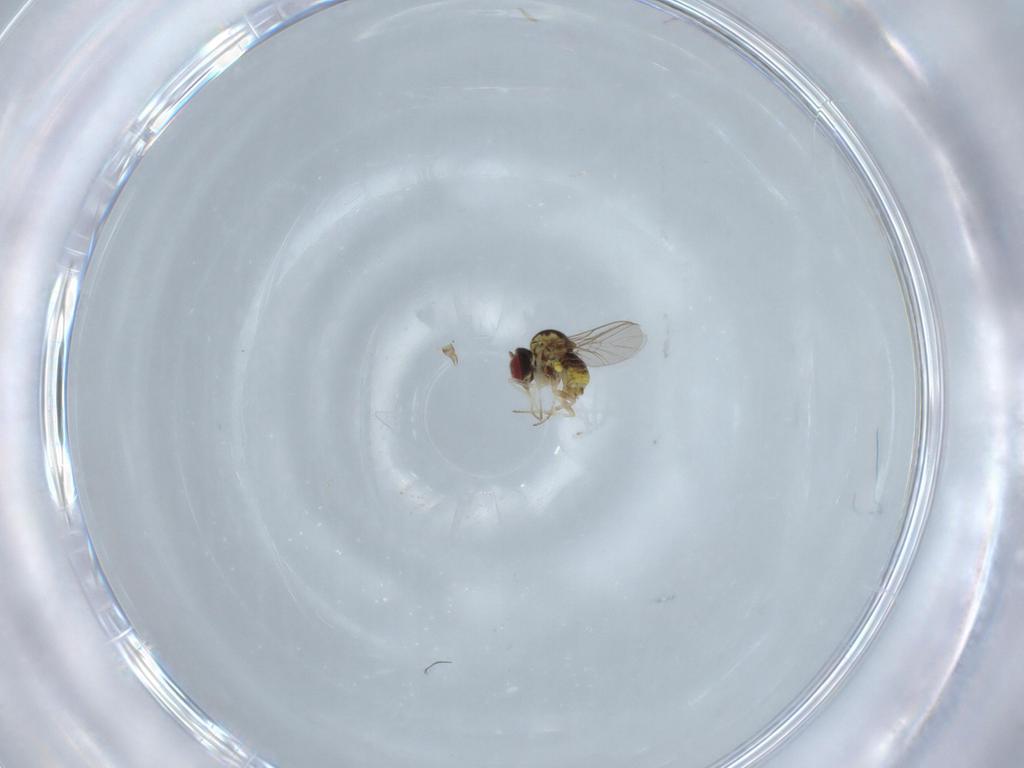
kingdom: Animalia
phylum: Arthropoda
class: Insecta
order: Diptera
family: Bombyliidae
